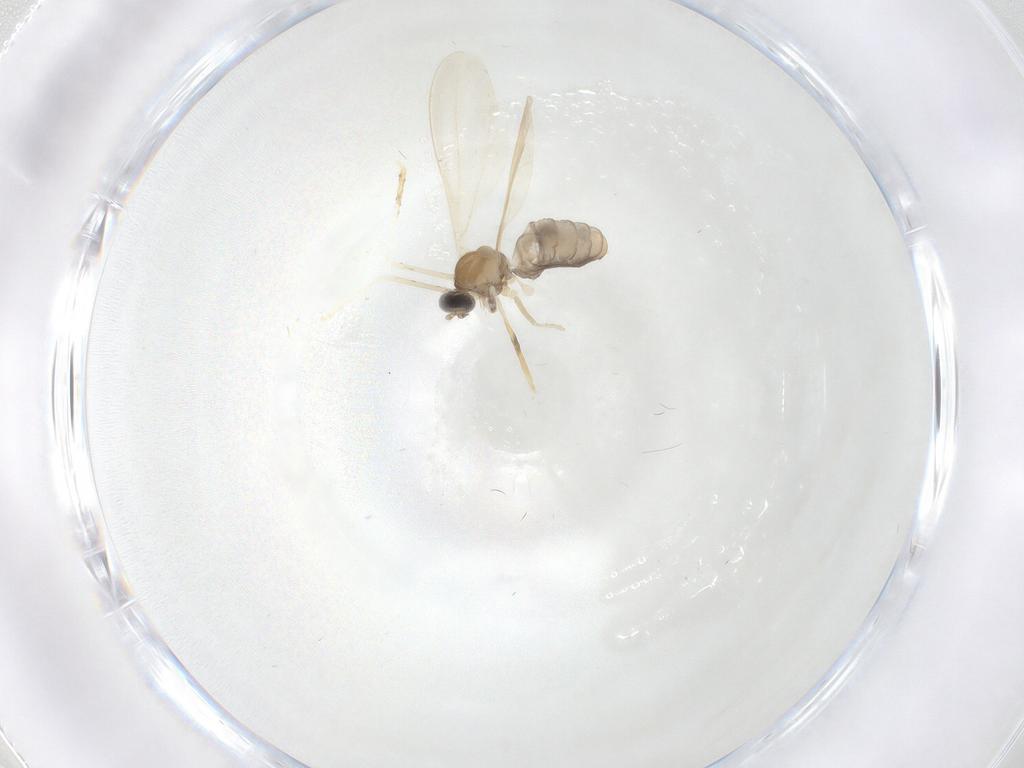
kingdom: Animalia
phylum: Arthropoda
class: Insecta
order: Diptera
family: Cecidomyiidae
